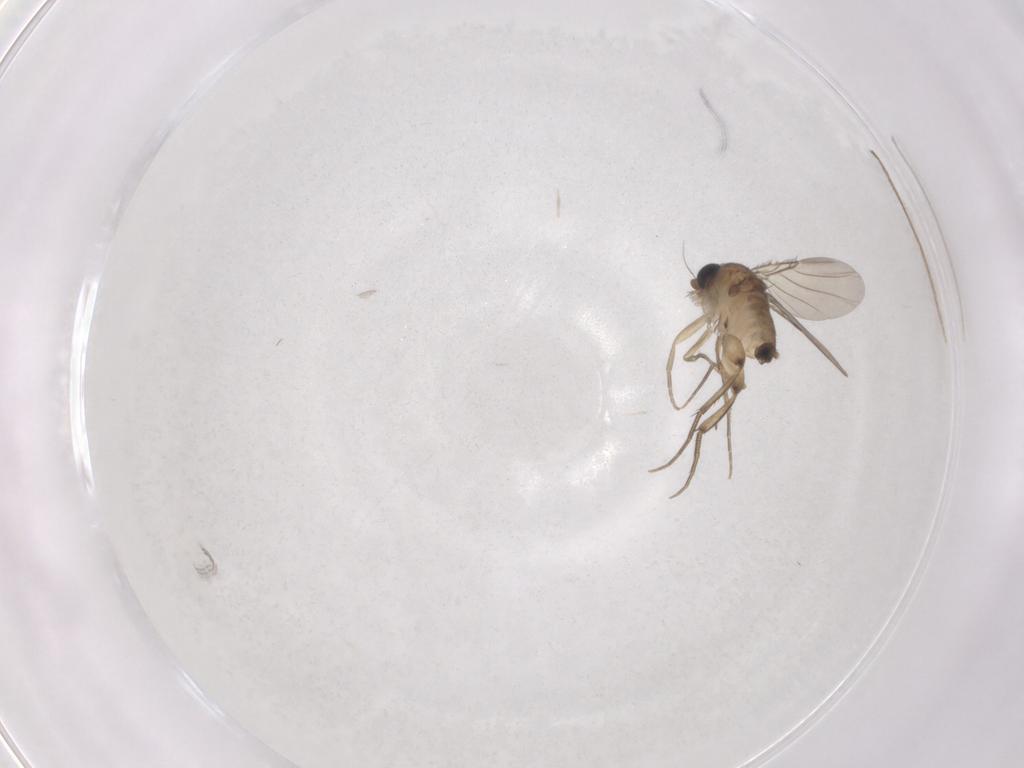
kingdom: Animalia
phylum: Arthropoda
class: Insecta
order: Diptera
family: Phoridae
